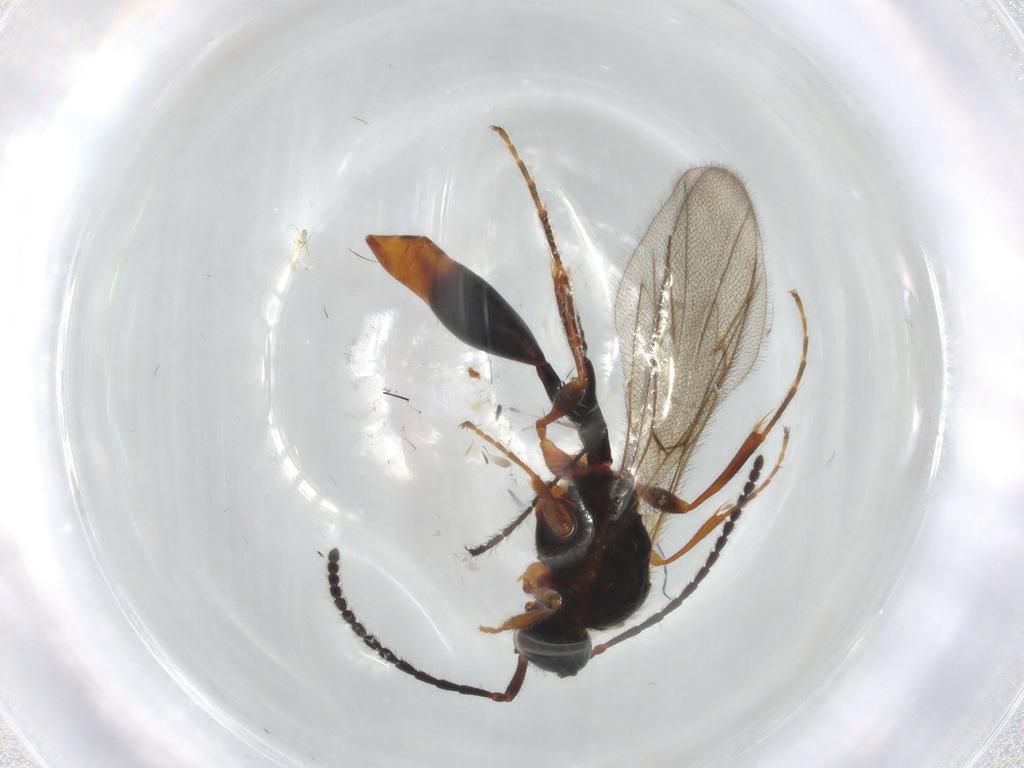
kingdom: Animalia
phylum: Arthropoda
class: Insecta
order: Hymenoptera
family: Diapriidae
